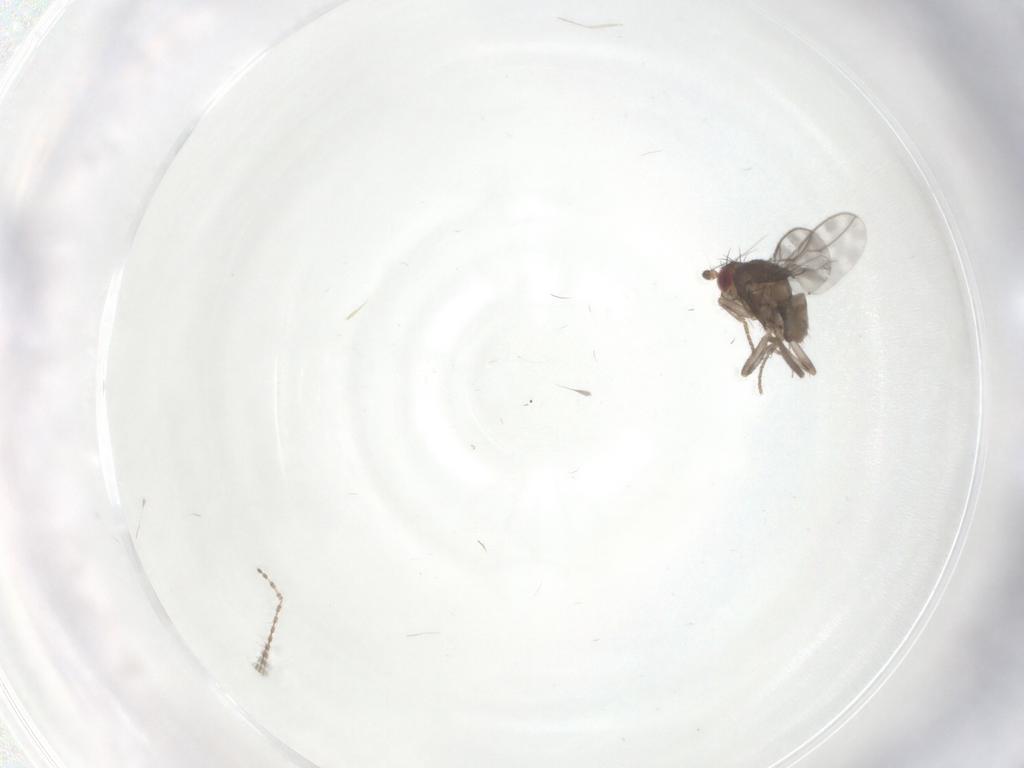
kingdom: Animalia
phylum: Arthropoda
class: Insecta
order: Diptera
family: Sphaeroceridae
